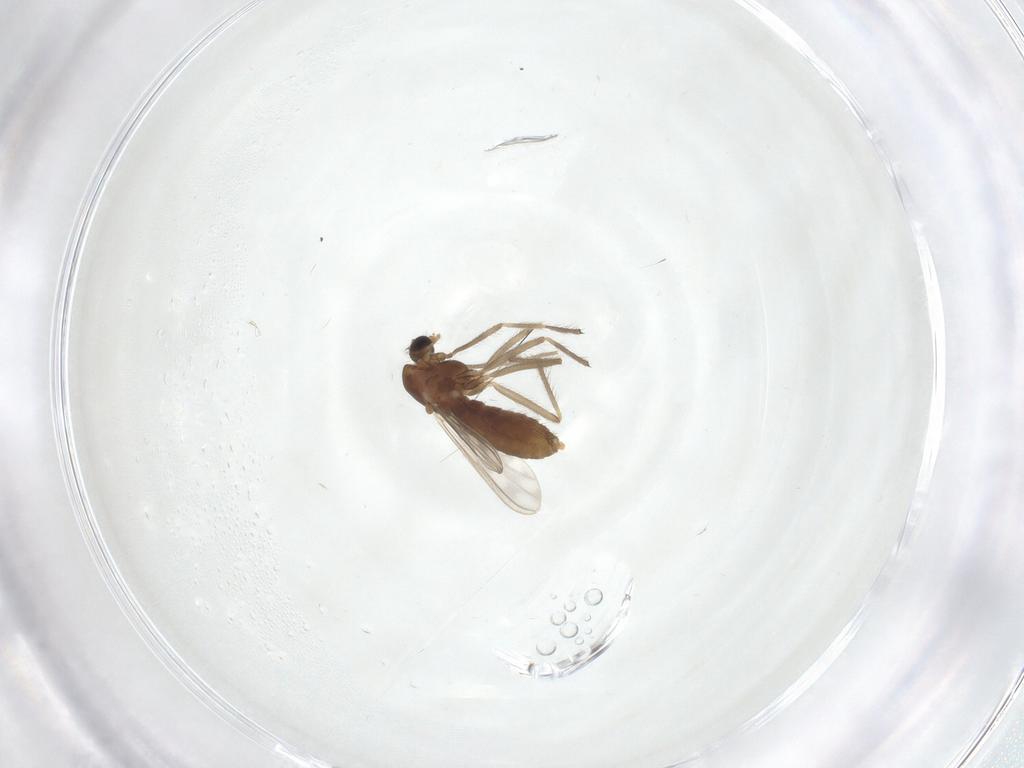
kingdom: Animalia
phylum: Arthropoda
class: Insecta
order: Diptera
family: Chironomidae
